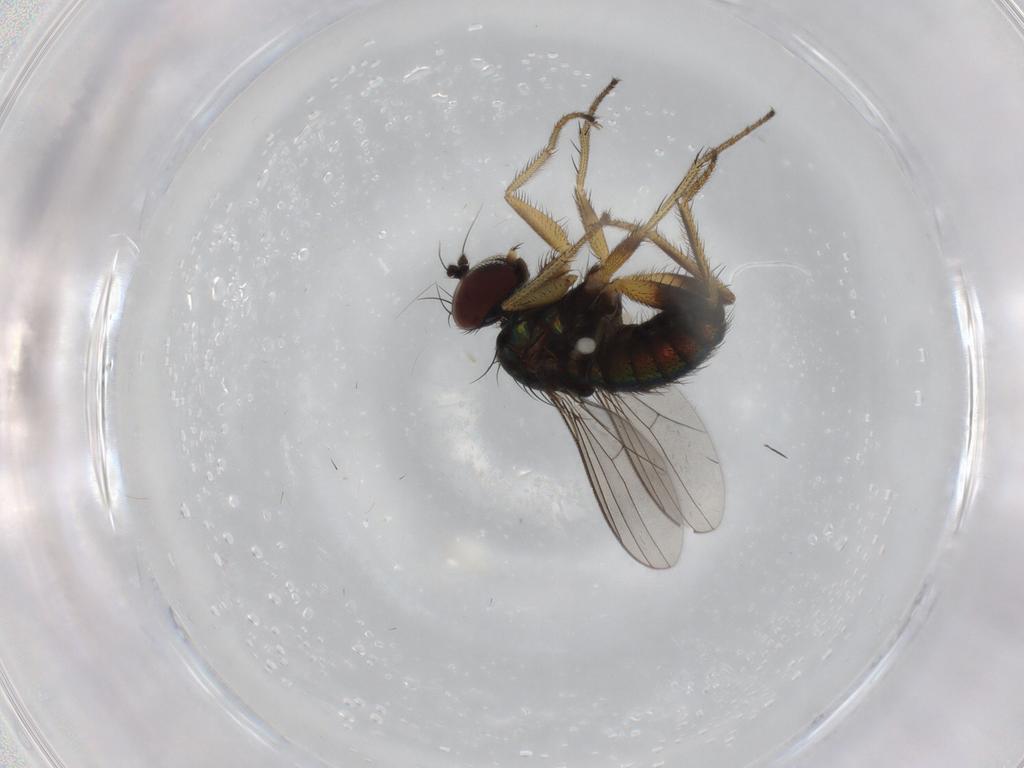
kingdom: Animalia
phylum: Arthropoda
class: Insecta
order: Diptera
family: Dolichopodidae
